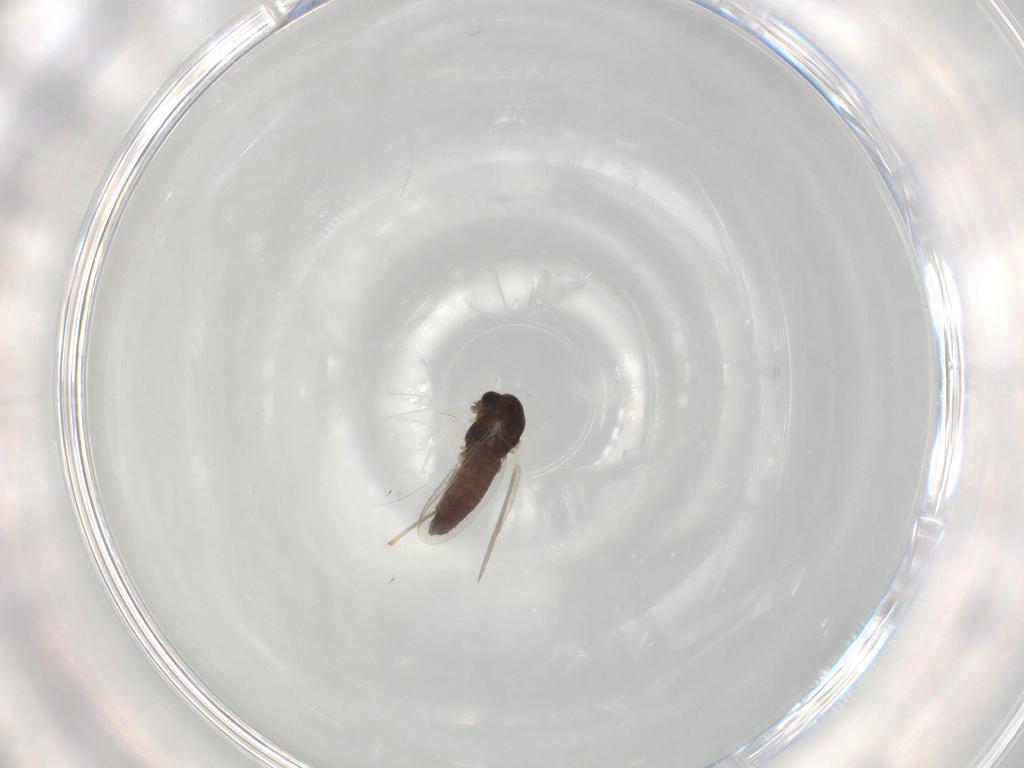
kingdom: Animalia
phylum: Arthropoda
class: Insecta
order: Diptera
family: Chironomidae
